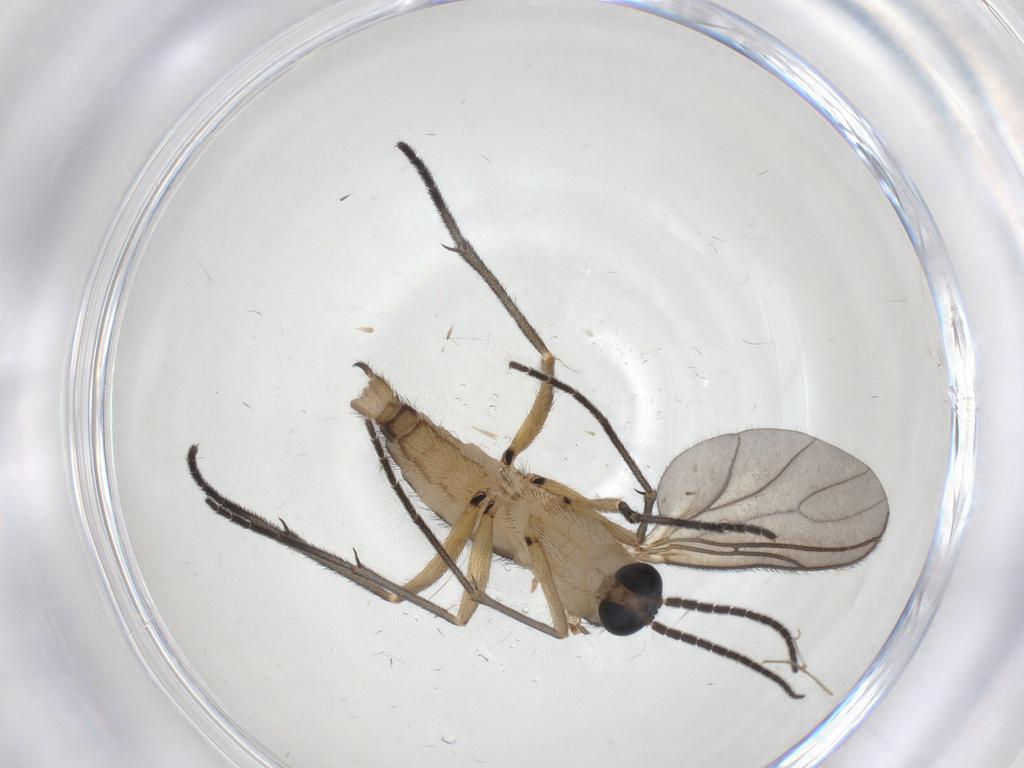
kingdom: Animalia
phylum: Arthropoda
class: Insecta
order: Diptera
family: Sciaridae
